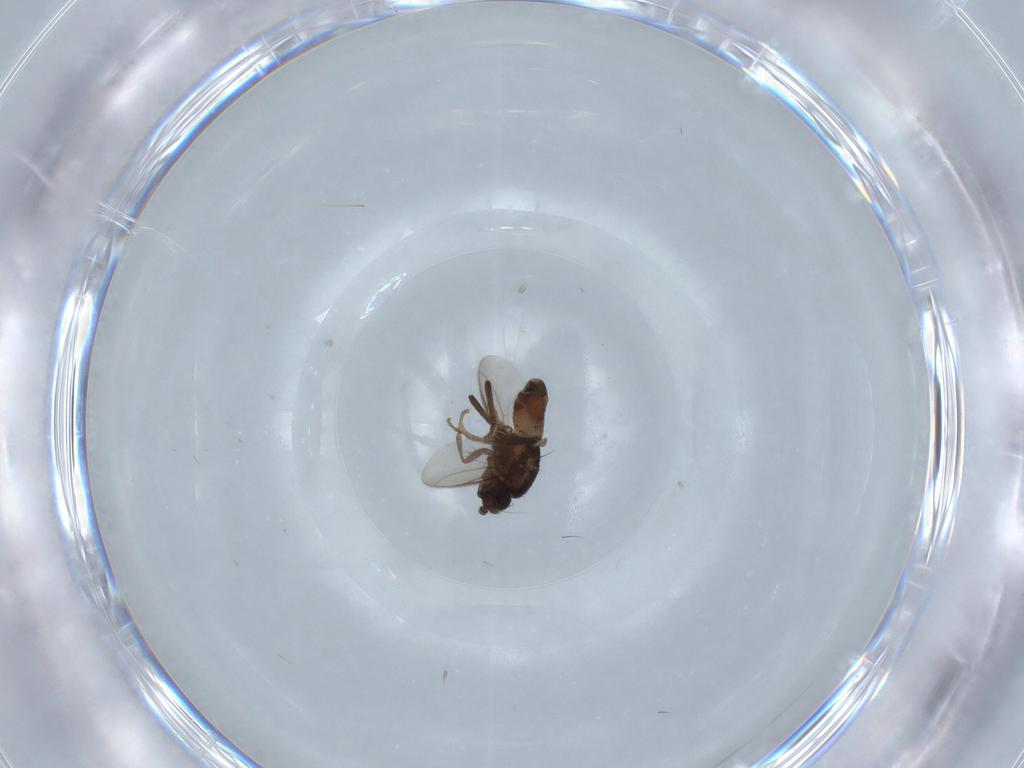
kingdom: Animalia
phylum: Arthropoda
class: Insecta
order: Diptera
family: Sphaeroceridae
